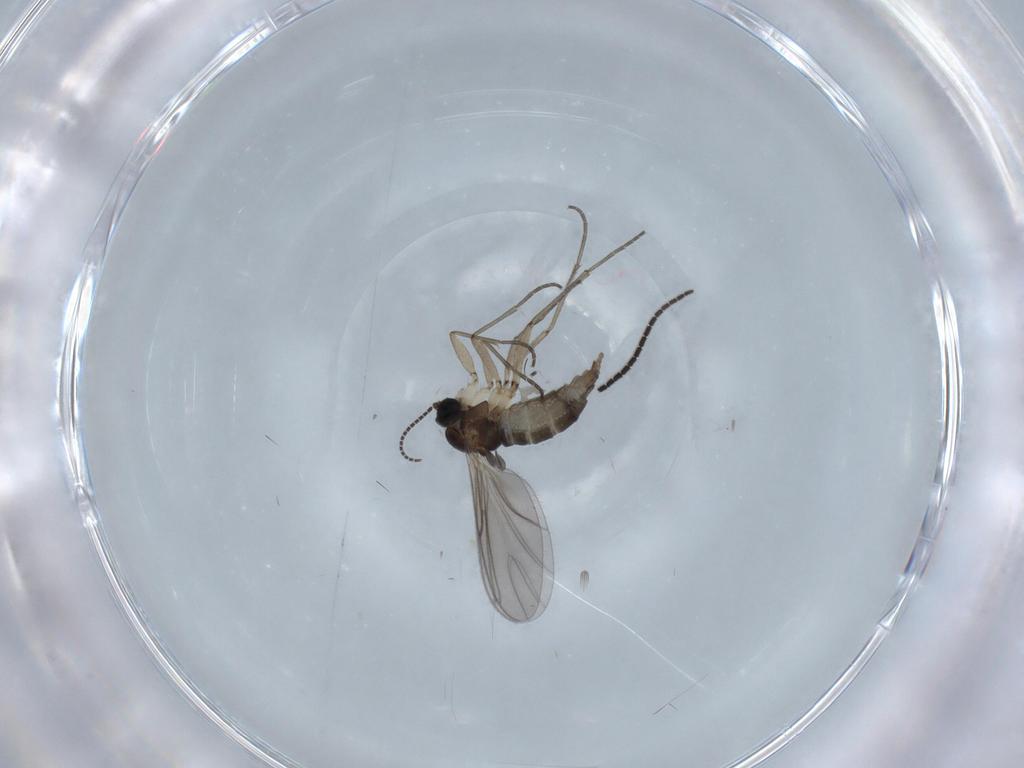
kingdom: Animalia
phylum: Arthropoda
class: Insecta
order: Diptera
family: Sciaridae
